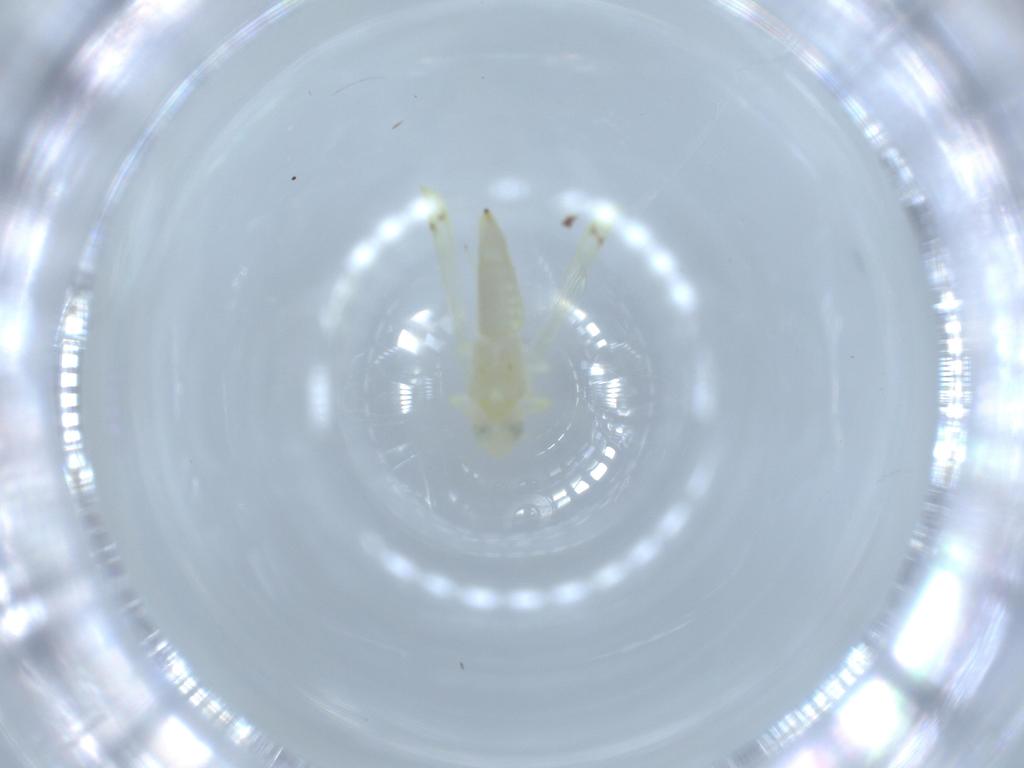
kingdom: Animalia
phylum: Arthropoda
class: Insecta
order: Hemiptera
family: Cicadellidae
